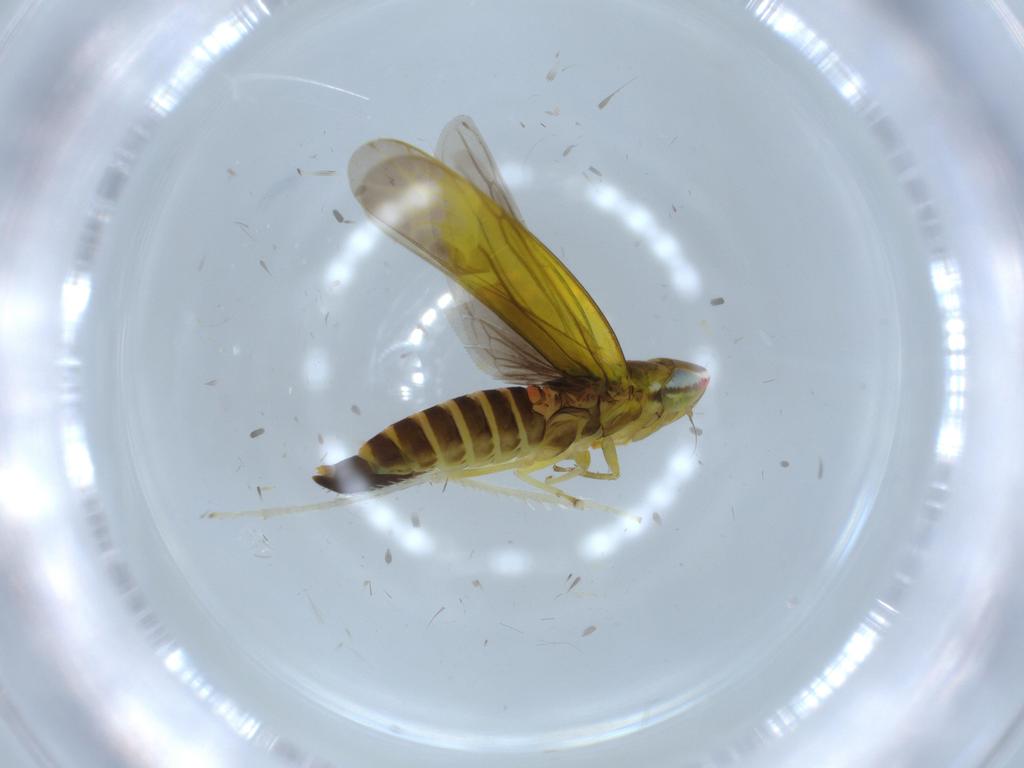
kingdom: Animalia
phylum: Arthropoda
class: Insecta
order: Hemiptera
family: Cicadellidae
